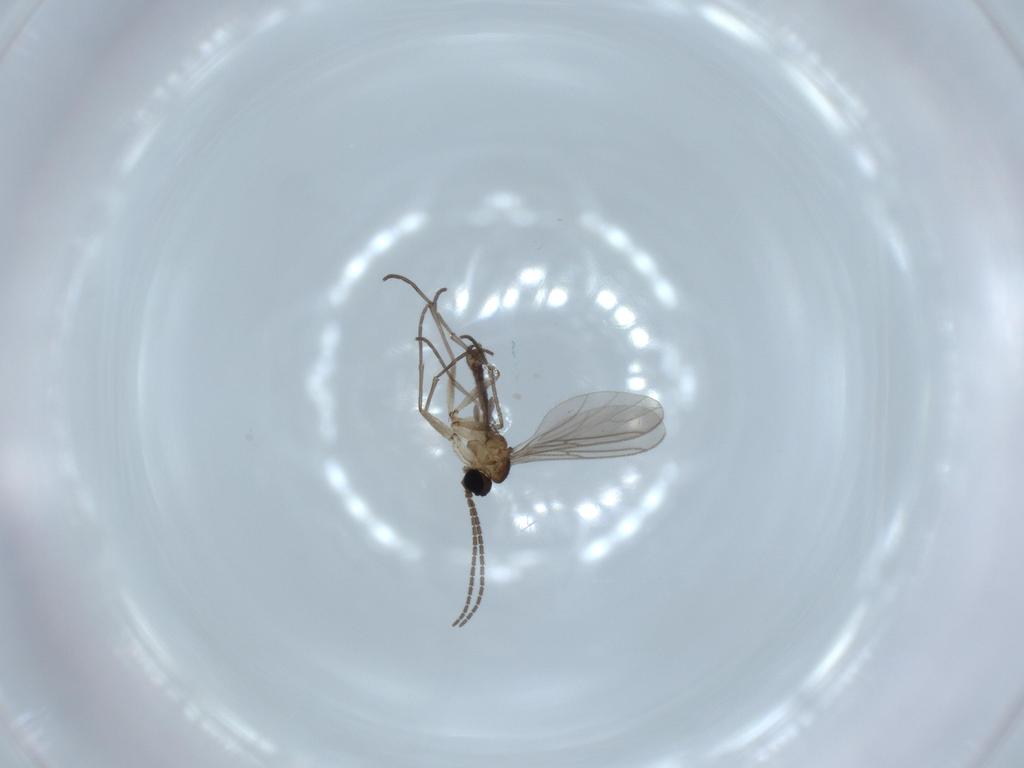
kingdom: Animalia
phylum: Arthropoda
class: Insecta
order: Diptera
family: Sciaridae
